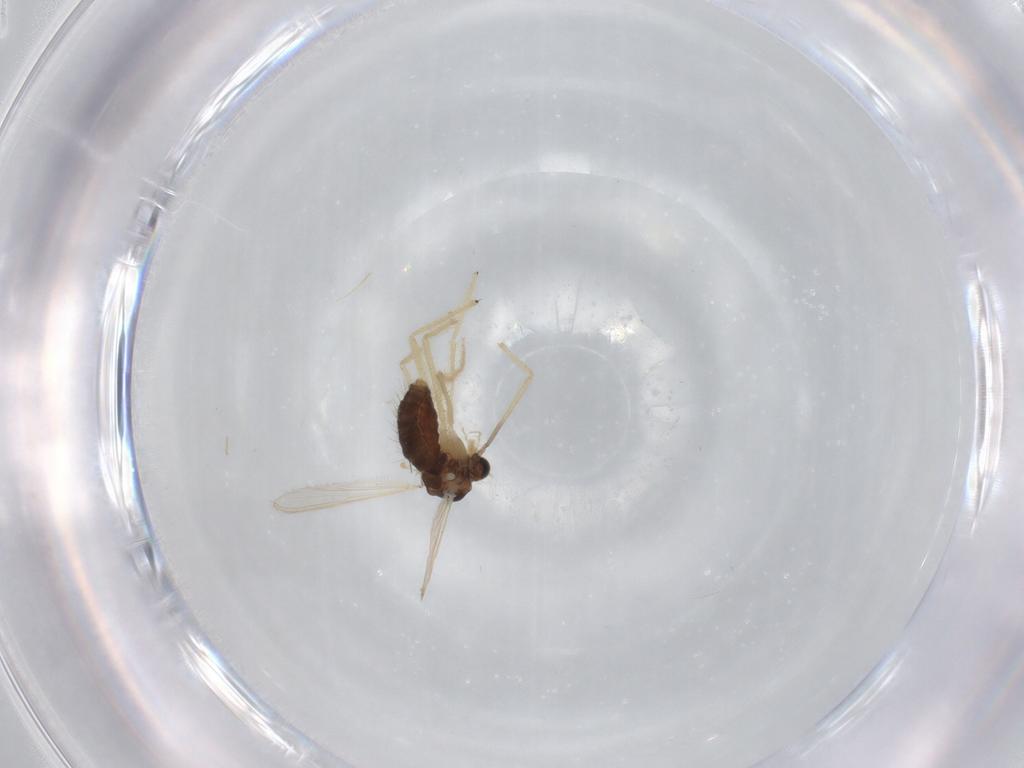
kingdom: Animalia
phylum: Arthropoda
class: Insecta
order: Diptera
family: Chironomidae
